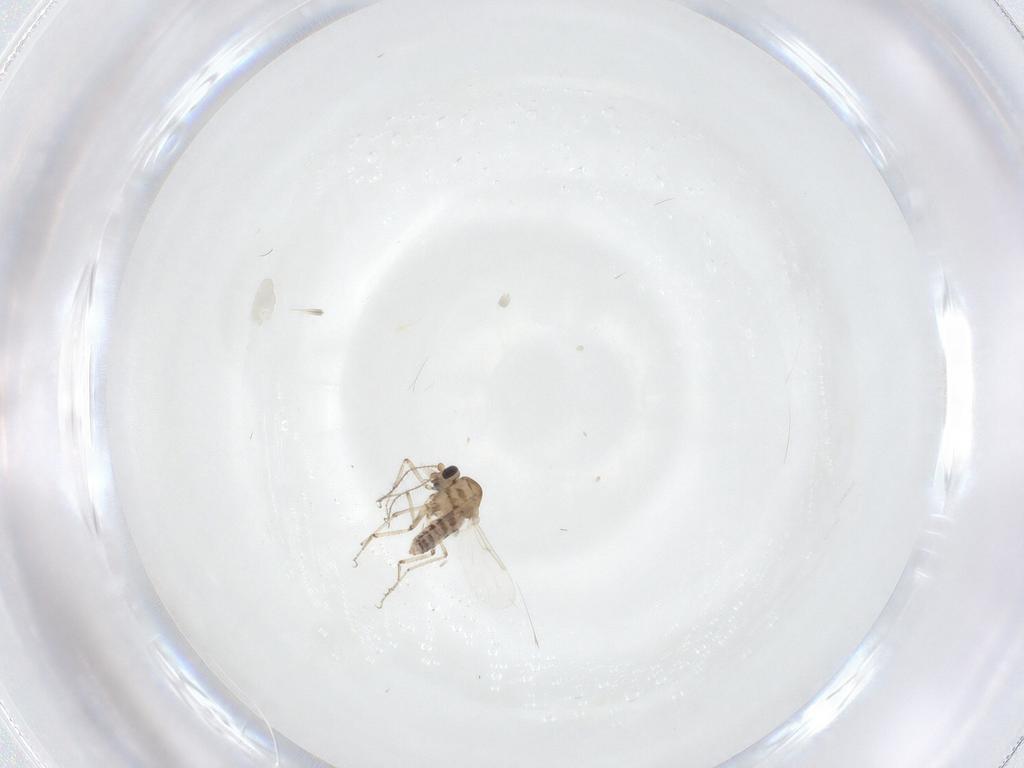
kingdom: Animalia
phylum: Arthropoda
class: Insecta
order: Diptera
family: Ceratopogonidae
